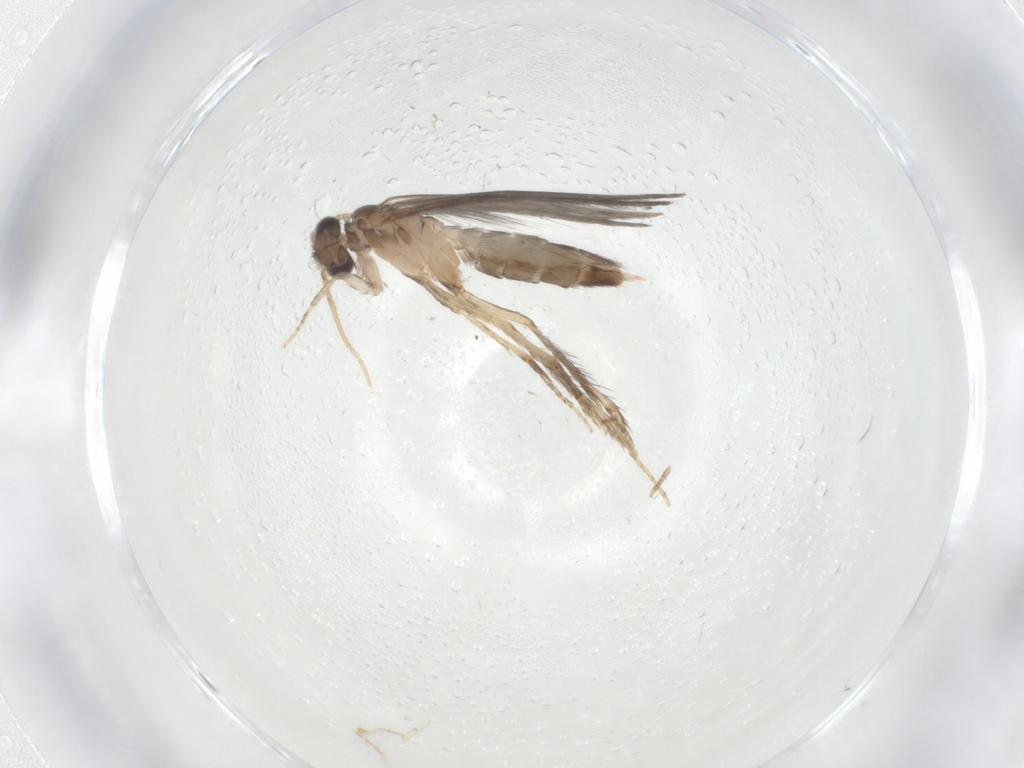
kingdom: Animalia
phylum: Arthropoda
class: Insecta
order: Trichoptera
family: Hydroptilidae
